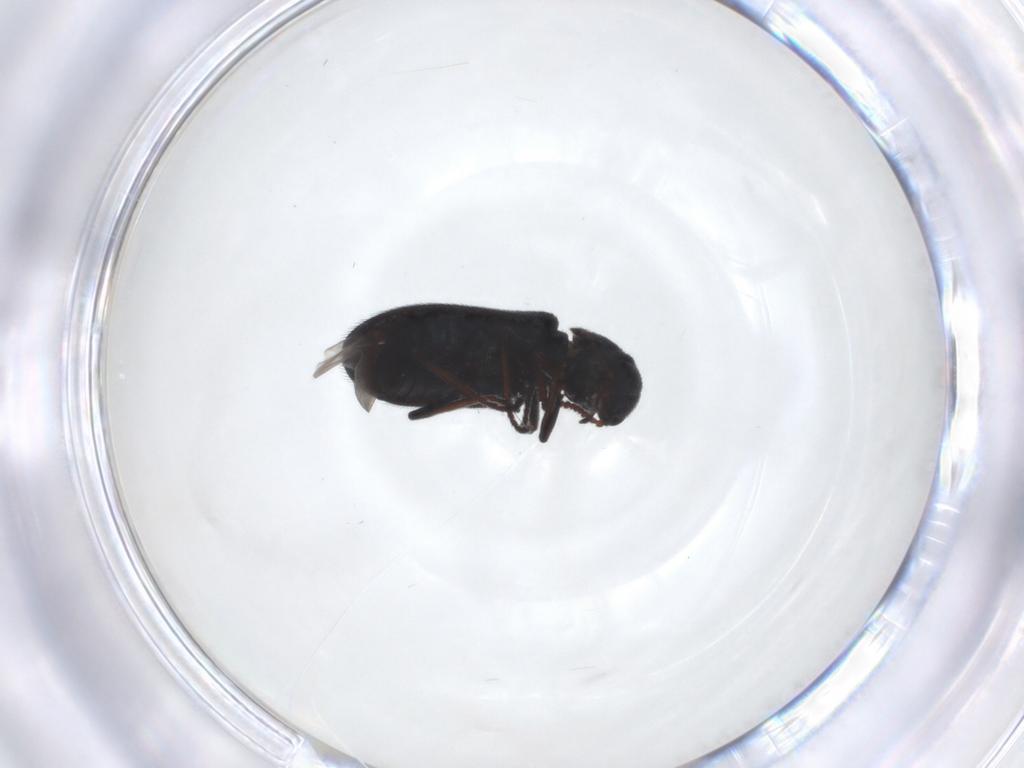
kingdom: Animalia
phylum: Arthropoda
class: Insecta
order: Coleoptera
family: Melyridae
